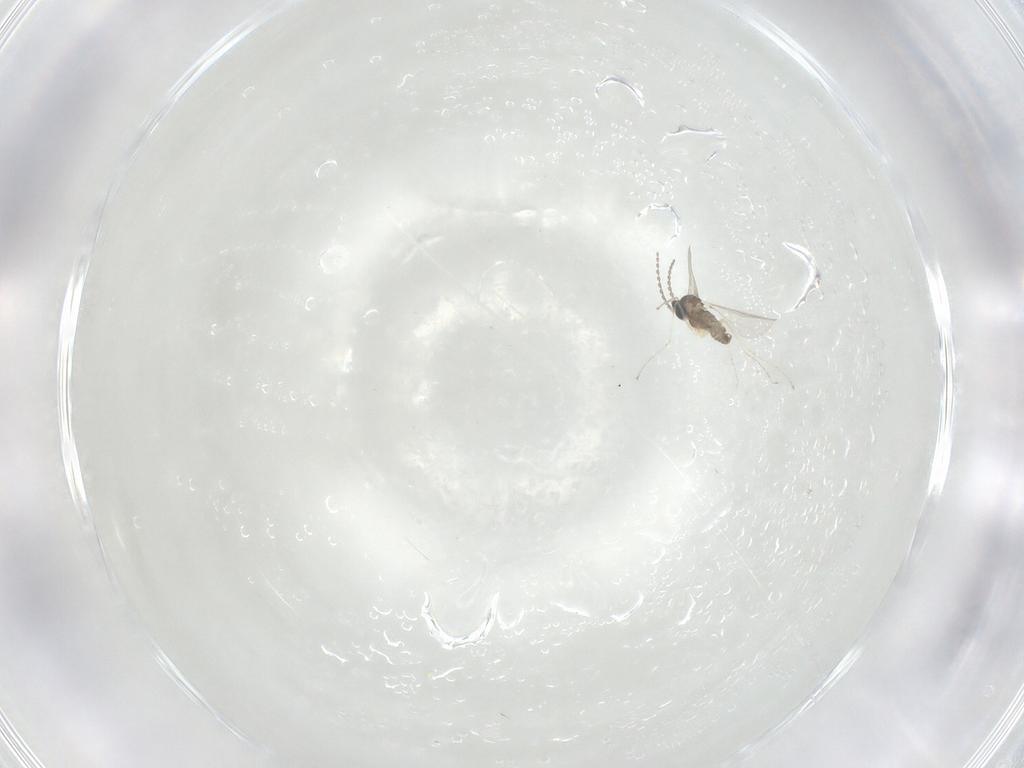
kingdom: Animalia
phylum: Arthropoda
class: Insecta
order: Diptera
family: Cecidomyiidae
